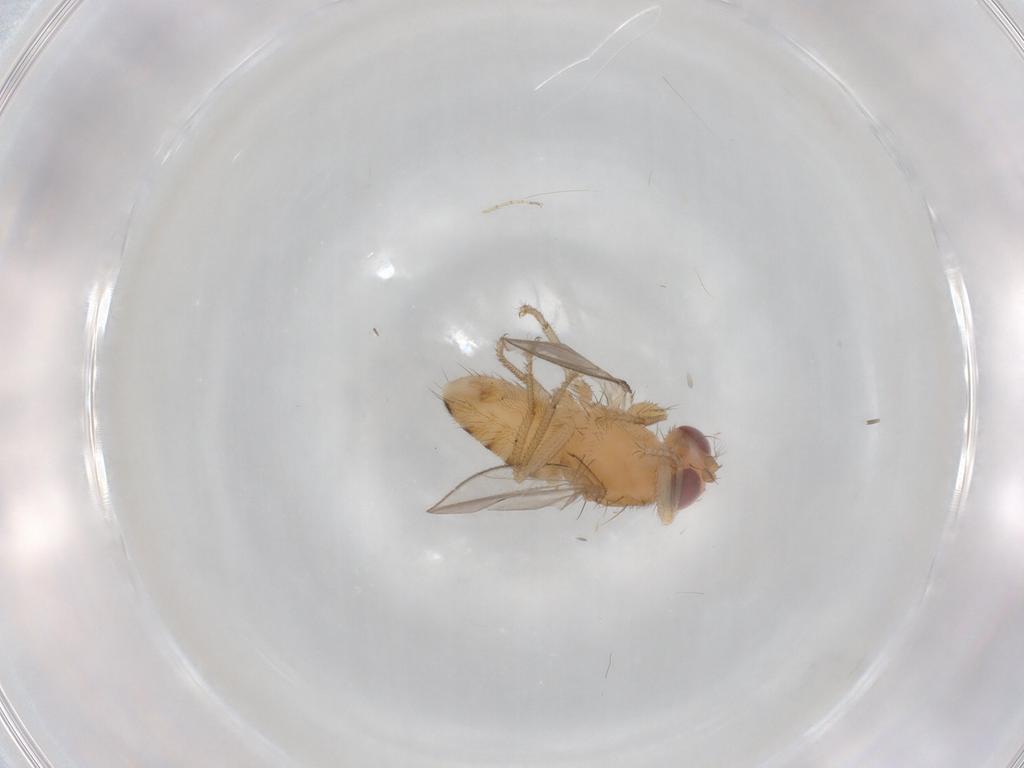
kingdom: Animalia
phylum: Arthropoda
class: Insecta
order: Diptera
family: Drosophilidae
